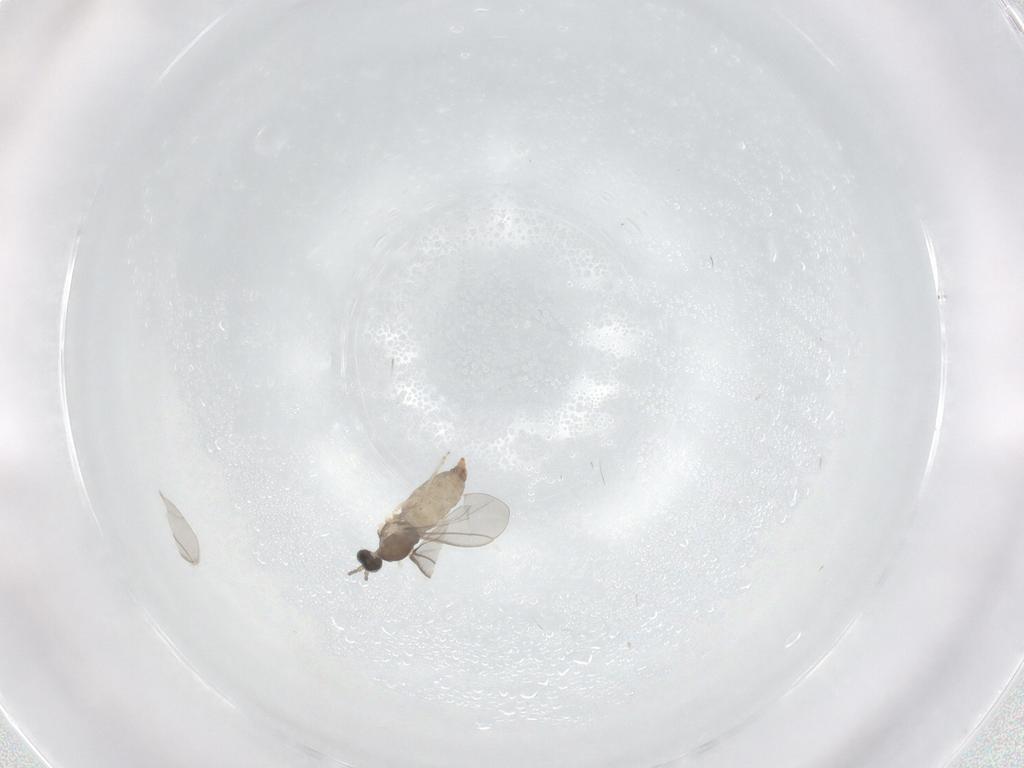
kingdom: Animalia
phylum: Arthropoda
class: Insecta
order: Diptera
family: Cecidomyiidae
